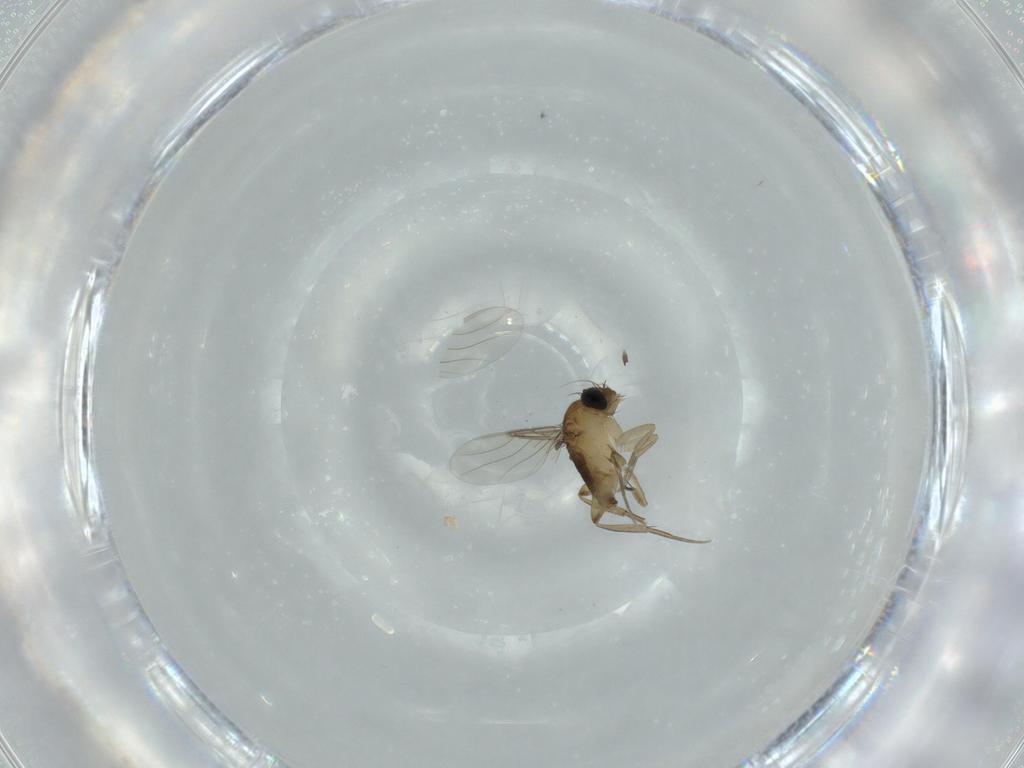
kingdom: Animalia
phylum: Arthropoda
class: Insecta
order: Diptera
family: Phoridae
